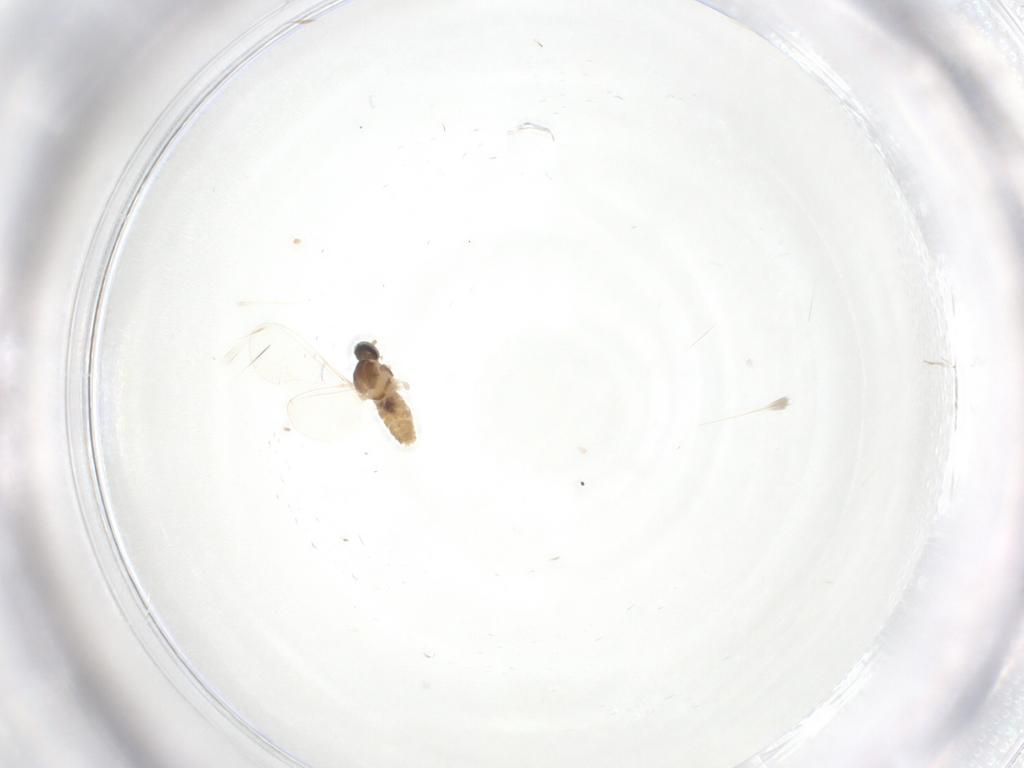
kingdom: Animalia
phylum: Arthropoda
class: Insecta
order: Diptera
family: Cecidomyiidae
